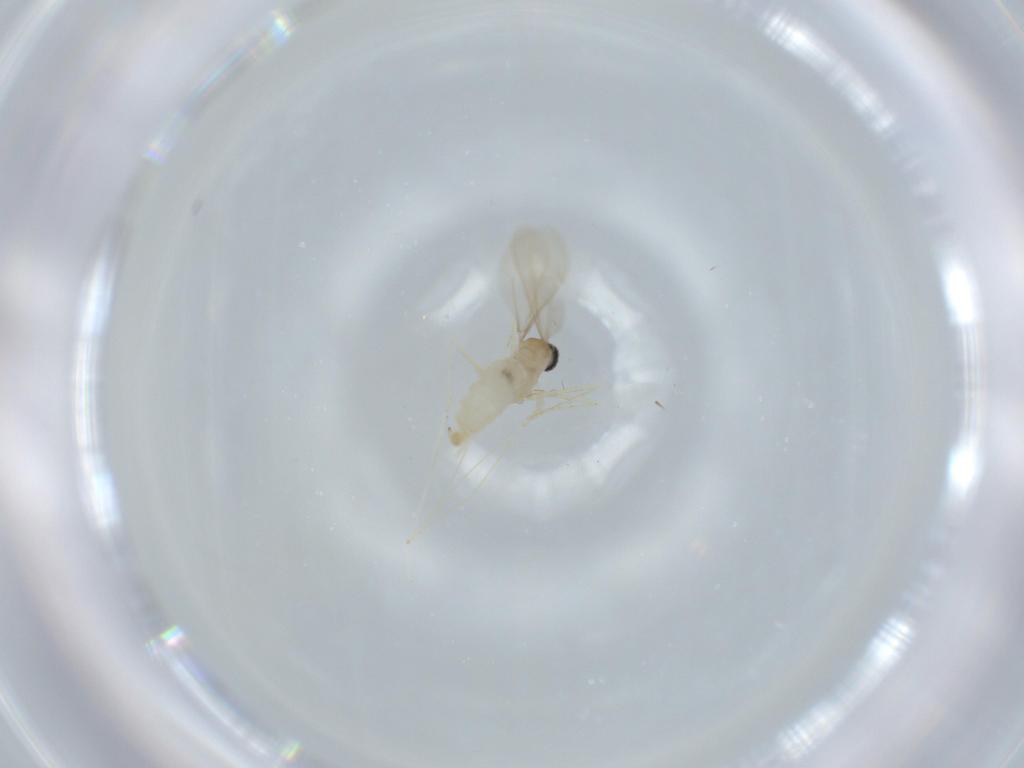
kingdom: Animalia
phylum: Arthropoda
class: Insecta
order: Diptera
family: Cecidomyiidae
